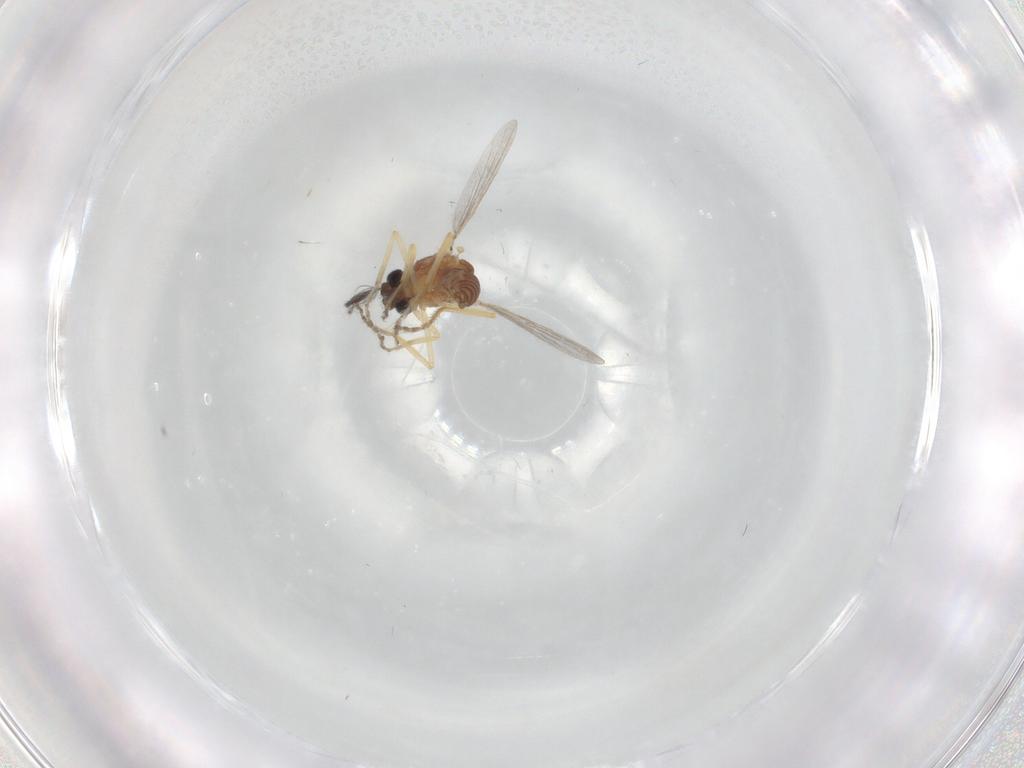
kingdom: Animalia
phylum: Arthropoda
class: Insecta
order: Diptera
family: Ceratopogonidae
